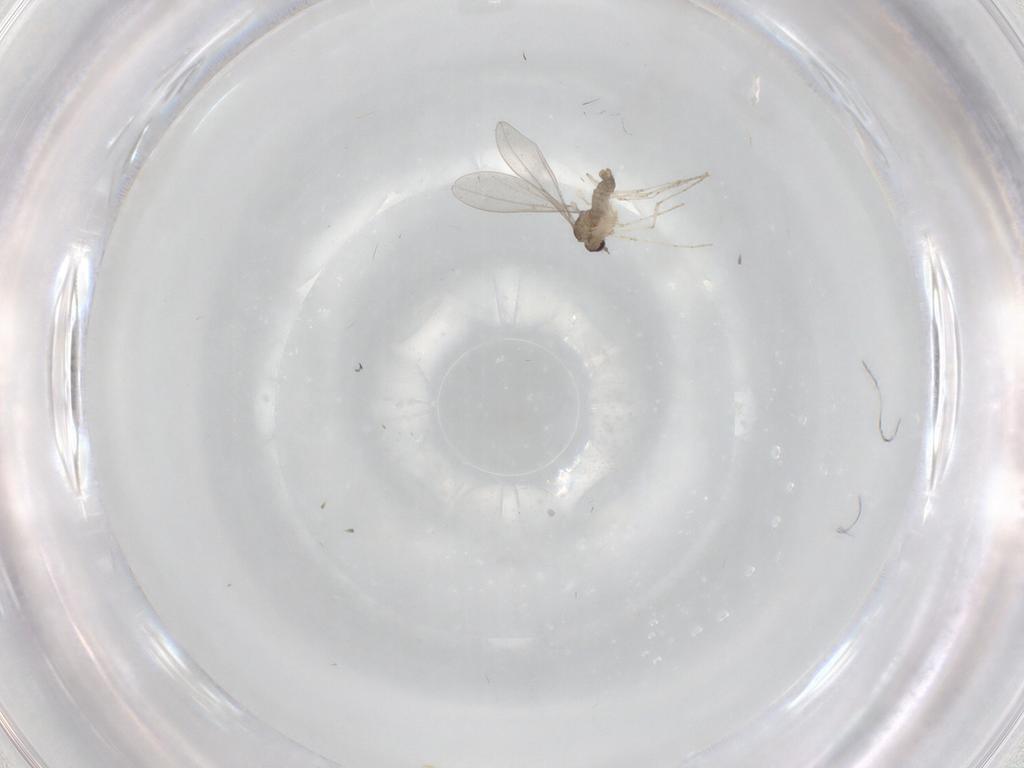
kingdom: Animalia
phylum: Arthropoda
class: Insecta
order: Diptera
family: Cecidomyiidae
